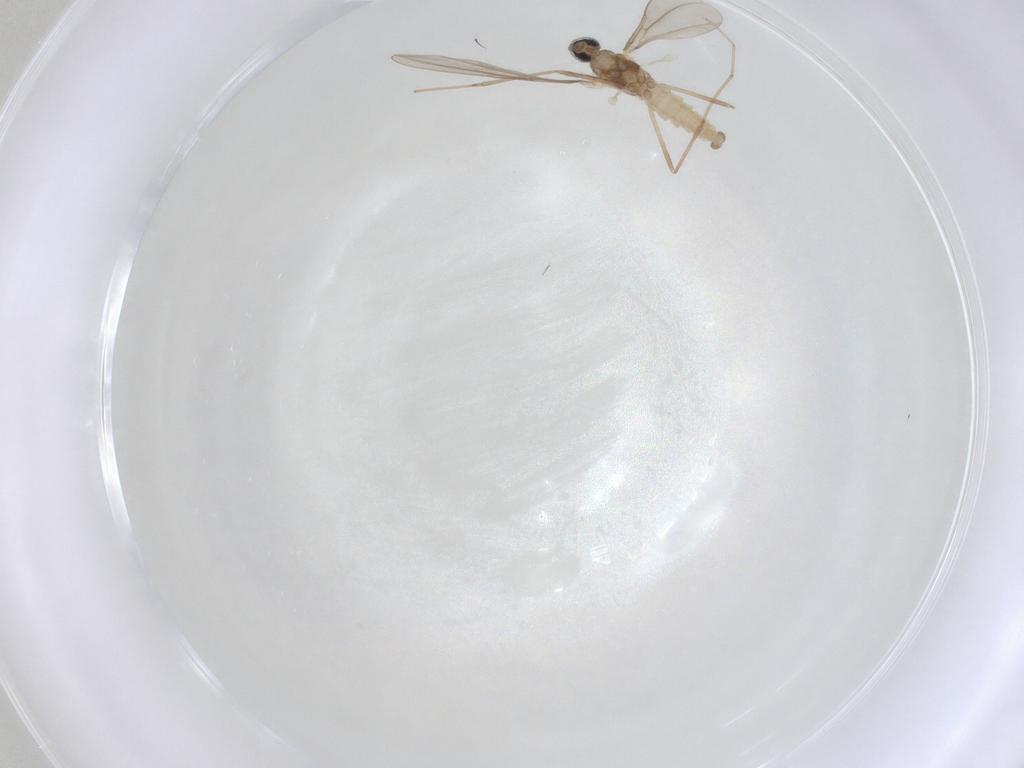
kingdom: Animalia
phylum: Arthropoda
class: Insecta
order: Diptera
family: Cecidomyiidae
